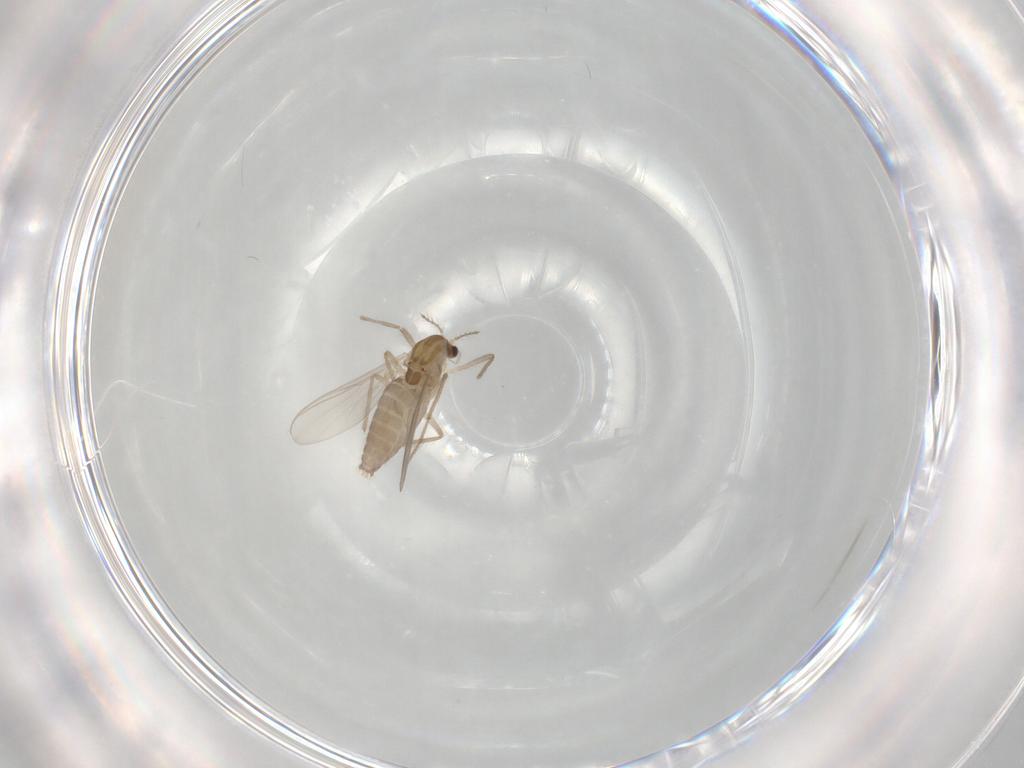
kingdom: Animalia
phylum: Arthropoda
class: Insecta
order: Diptera
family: Chironomidae
